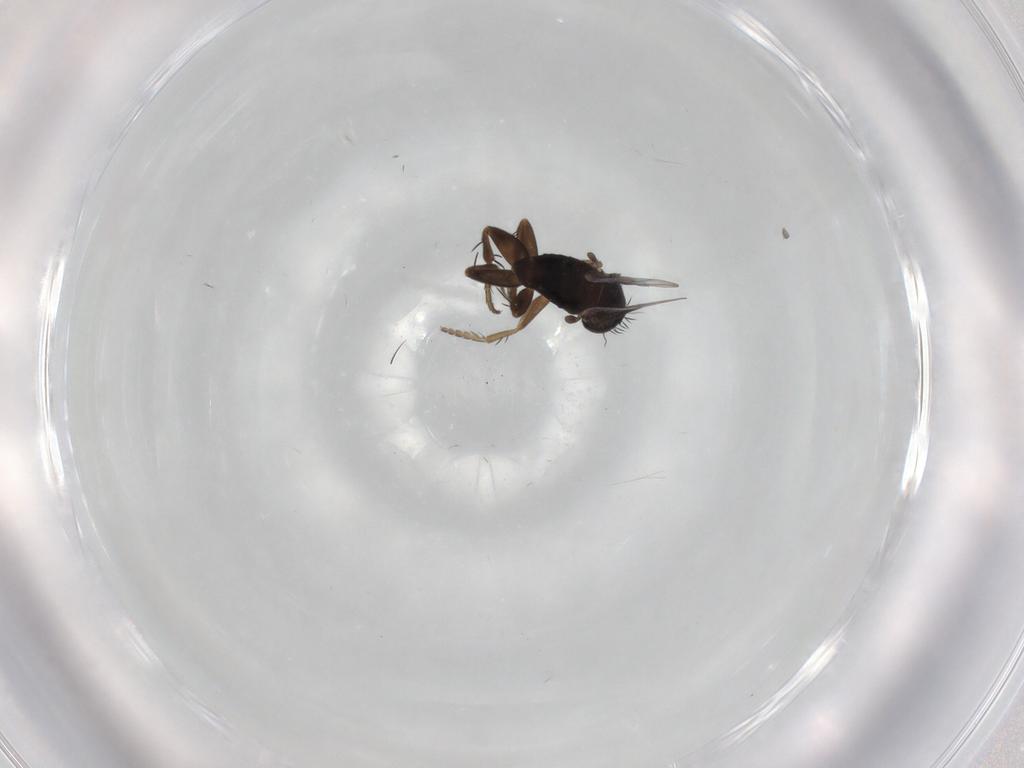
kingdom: Animalia
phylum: Arthropoda
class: Insecta
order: Diptera
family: Phoridae
